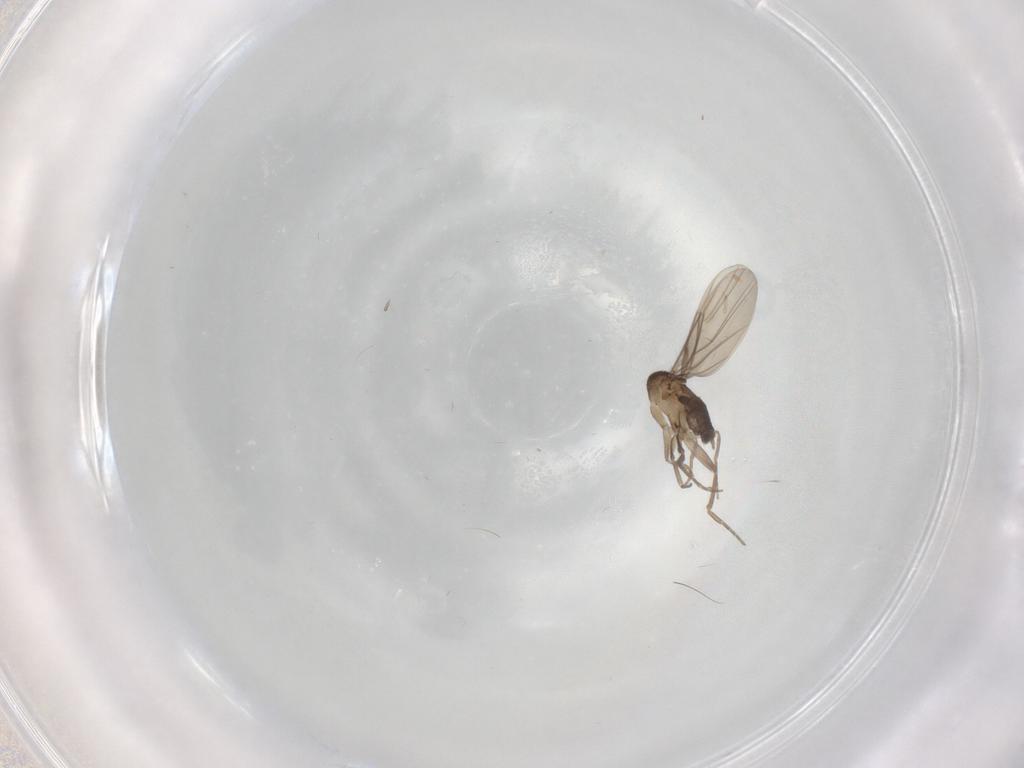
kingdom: Animalia
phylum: Arthropoda
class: Insecta
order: Diptera
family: Phoridae
